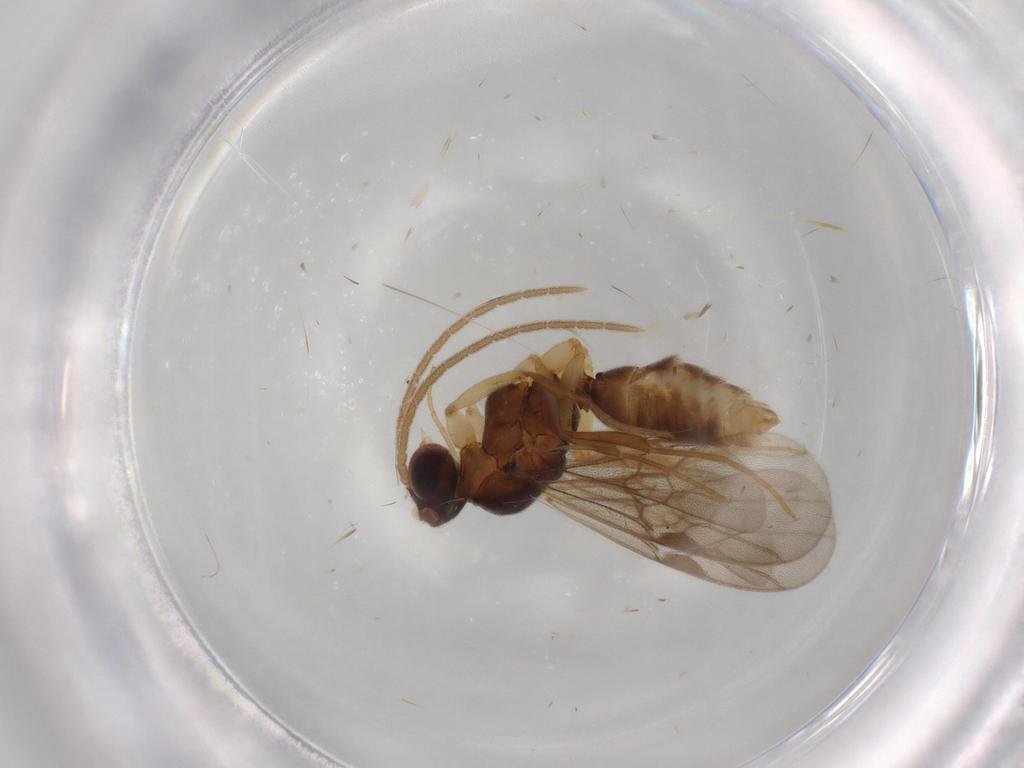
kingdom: Animalia
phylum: Arthropoda
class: Insecta
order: Hymenoptera
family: Formicidae
